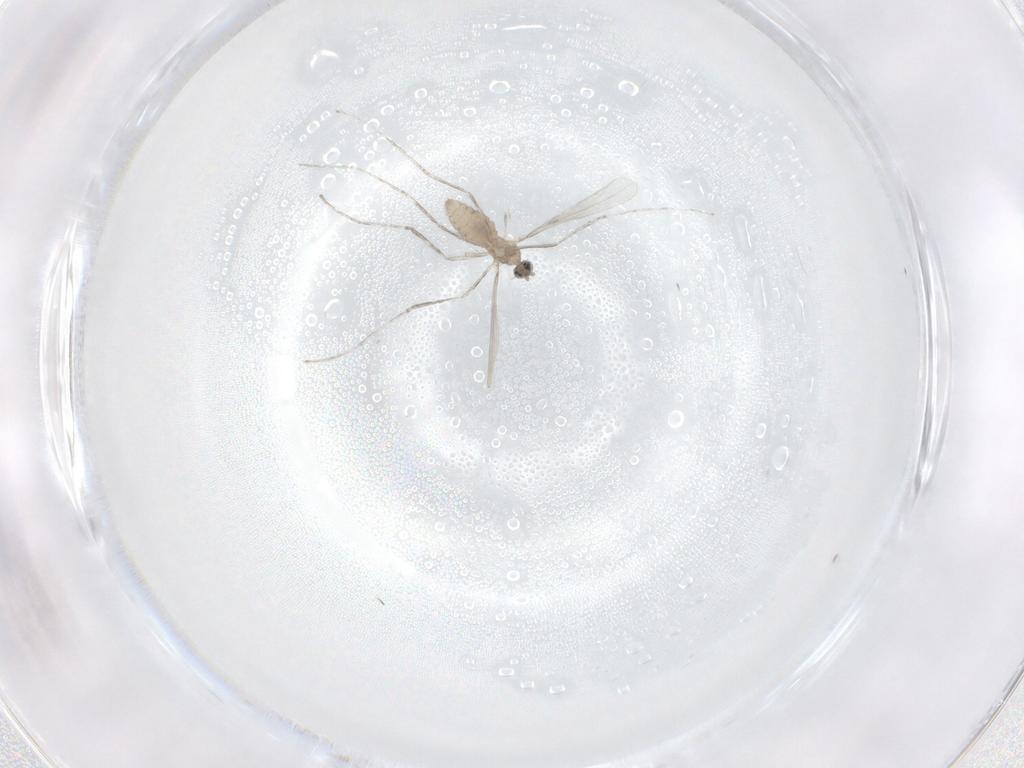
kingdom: Animalia
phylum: Arthropoda
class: Insecta
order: Diptera
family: Cecidomyiidae
